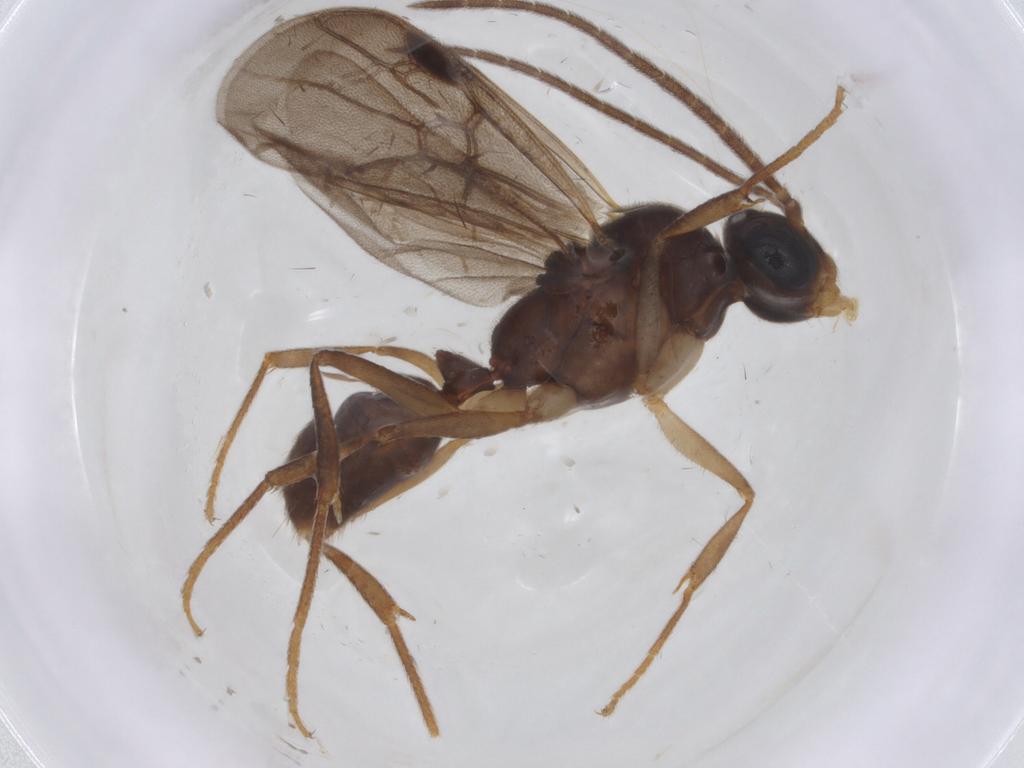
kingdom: Animalia
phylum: Arthropoda
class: Insecta
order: Hymenoptera
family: Formicidae
